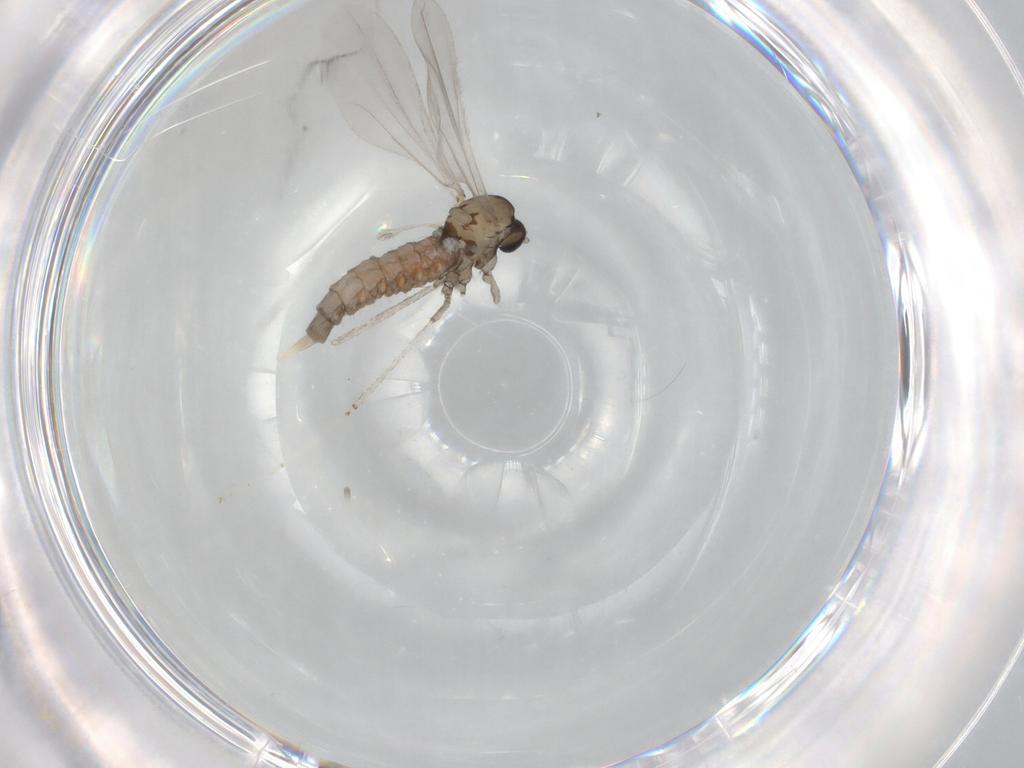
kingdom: Animalia
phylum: Arthropoda
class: Insecta
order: Diptera
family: Cecidomyiidae
